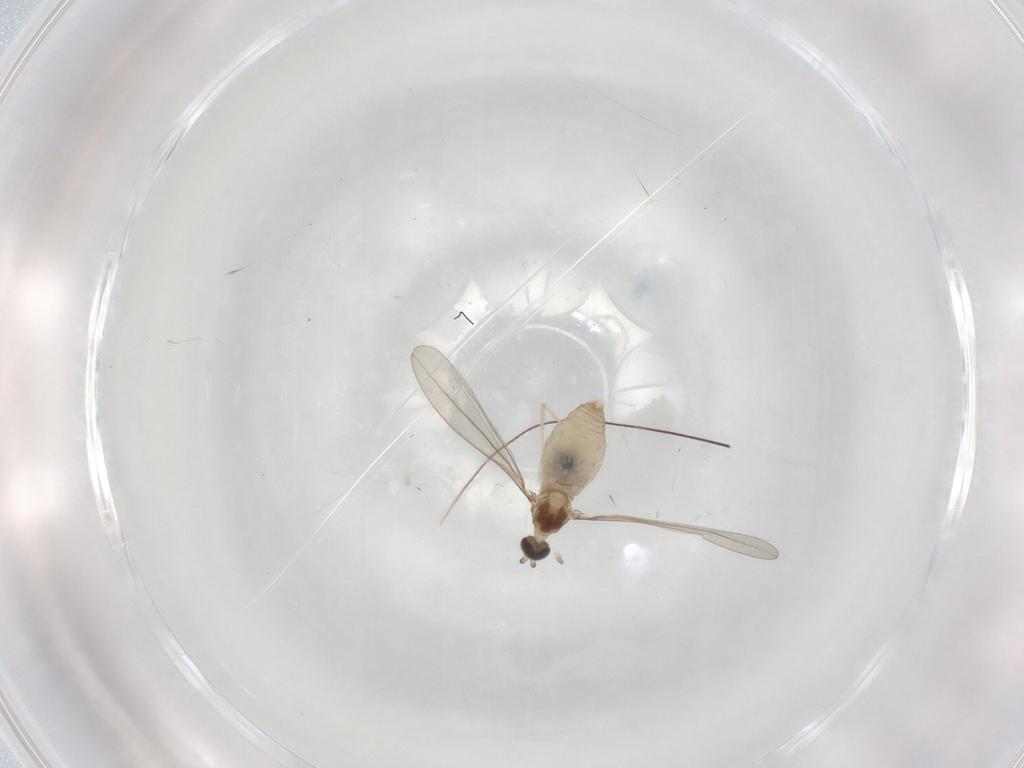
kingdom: Animalia
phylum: Arthropoda
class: Insecta
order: Diptera
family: Cecidomyiidae
